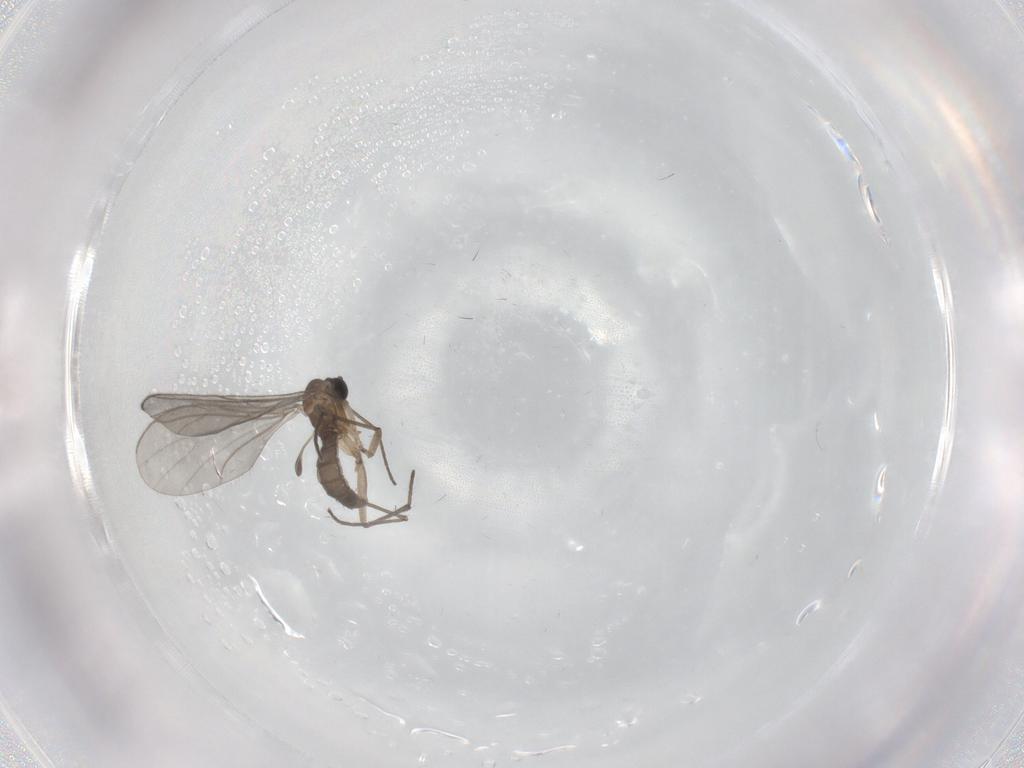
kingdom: Animalia
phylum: Arthropoda
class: Insecta
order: Diptera
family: Sciaridae
